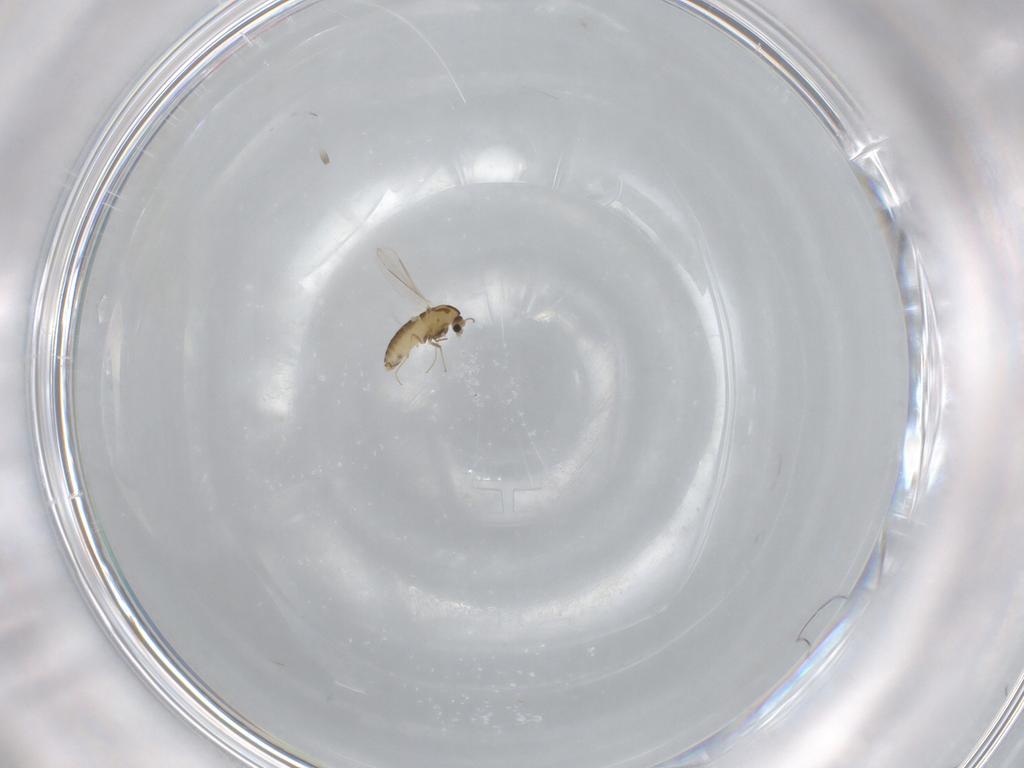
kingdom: Animalia
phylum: Arthropoda
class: Insecta
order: Diptera
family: Chironomidae
